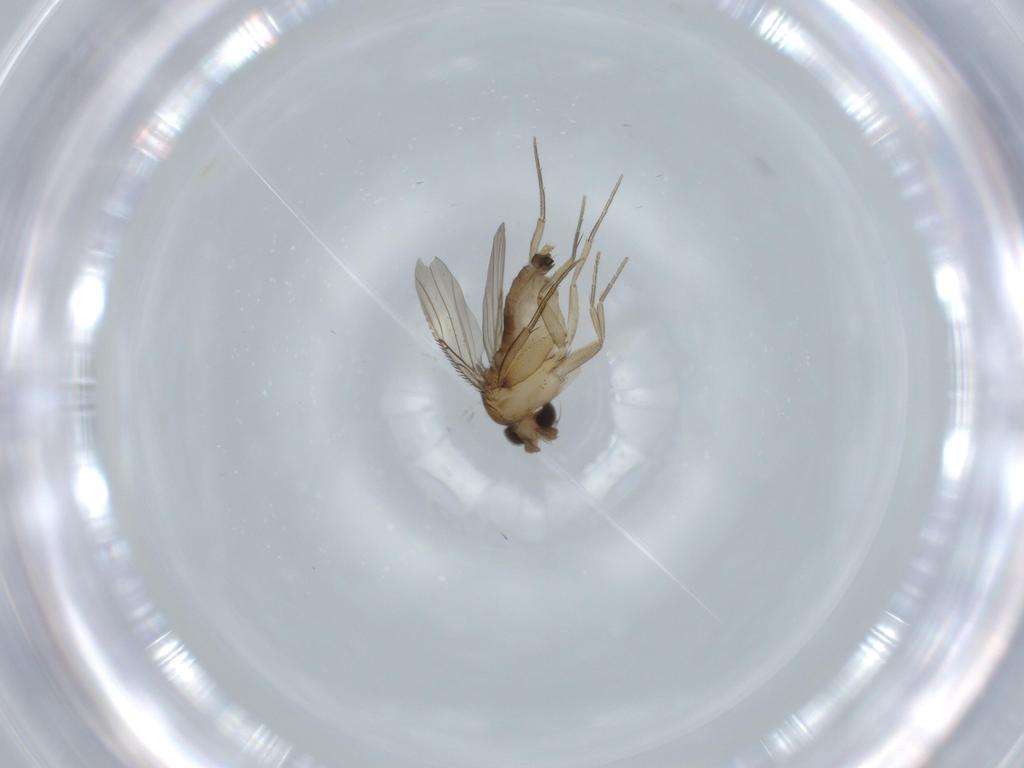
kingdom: Animalia
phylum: Arthropoda
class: Insecta
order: Diptera
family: Phoridae
